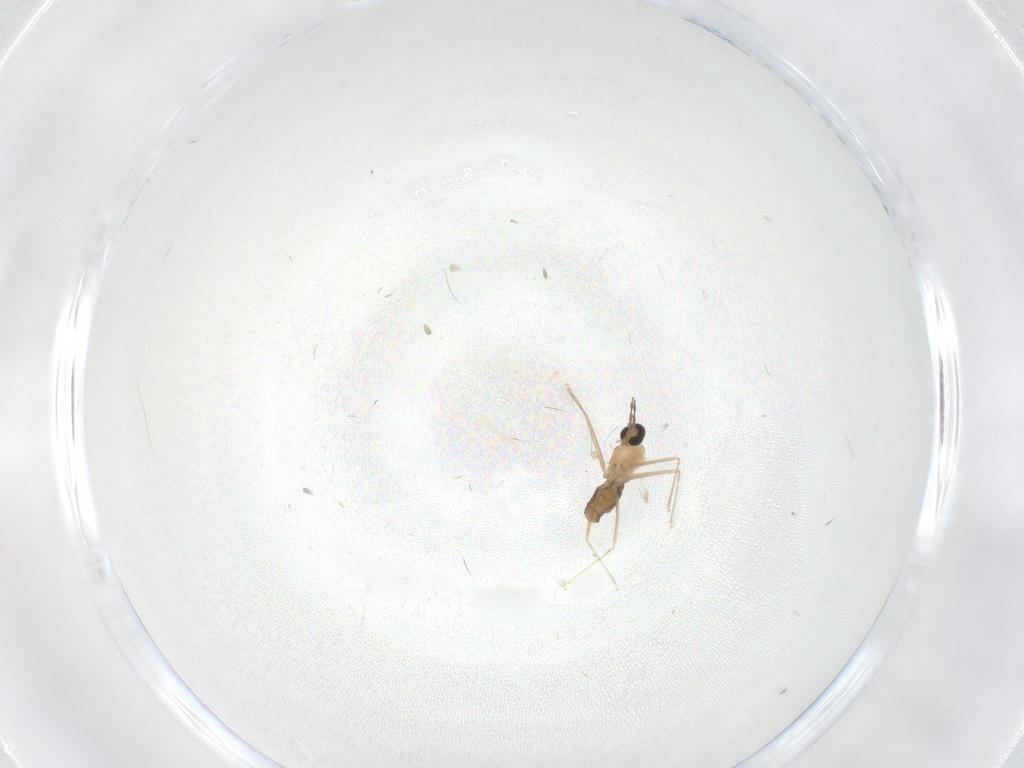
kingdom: Animalia
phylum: Arthropoda
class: Insecta
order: Diptera
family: Cecidomyiidae
